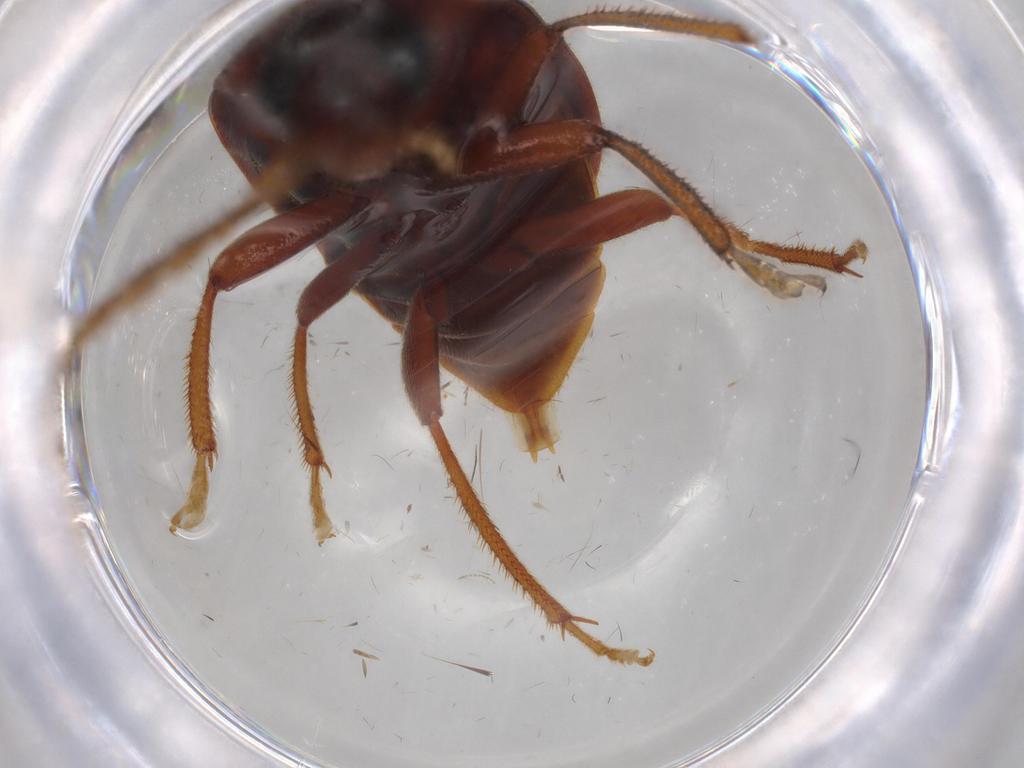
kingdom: Animalia
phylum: Arthropoda
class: Insecta
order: Coleoptera
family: Ptilodactylidae
